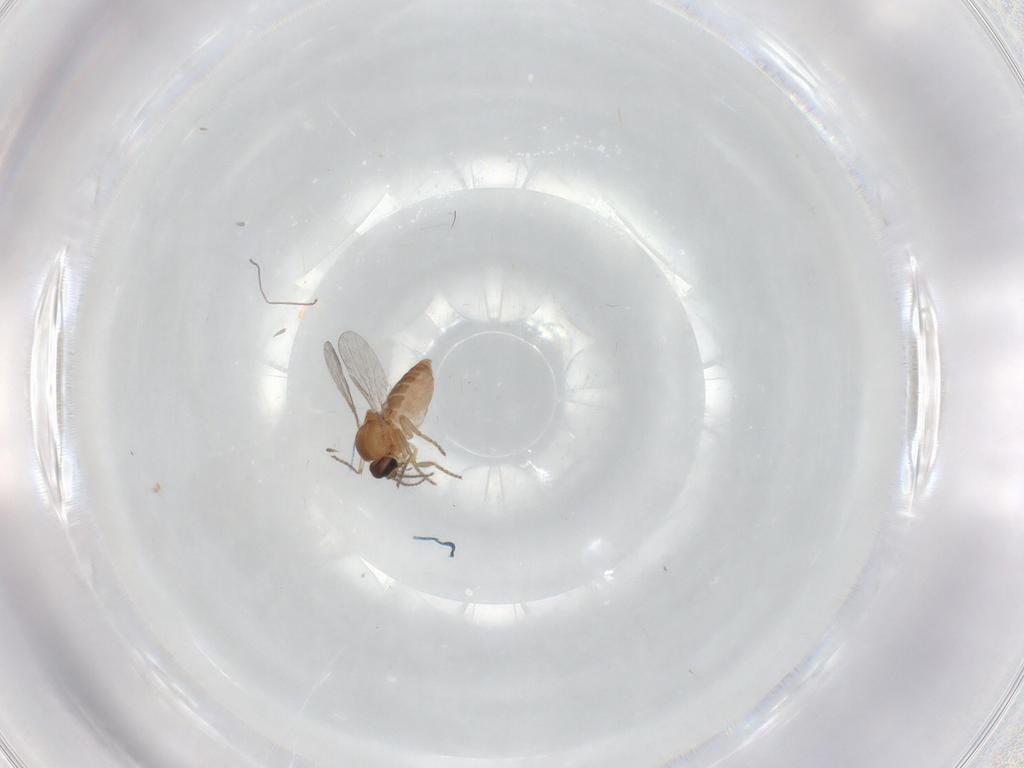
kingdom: Animalia
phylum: Arthropoda
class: Insecta
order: Diptera
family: Ceratopogonidae
